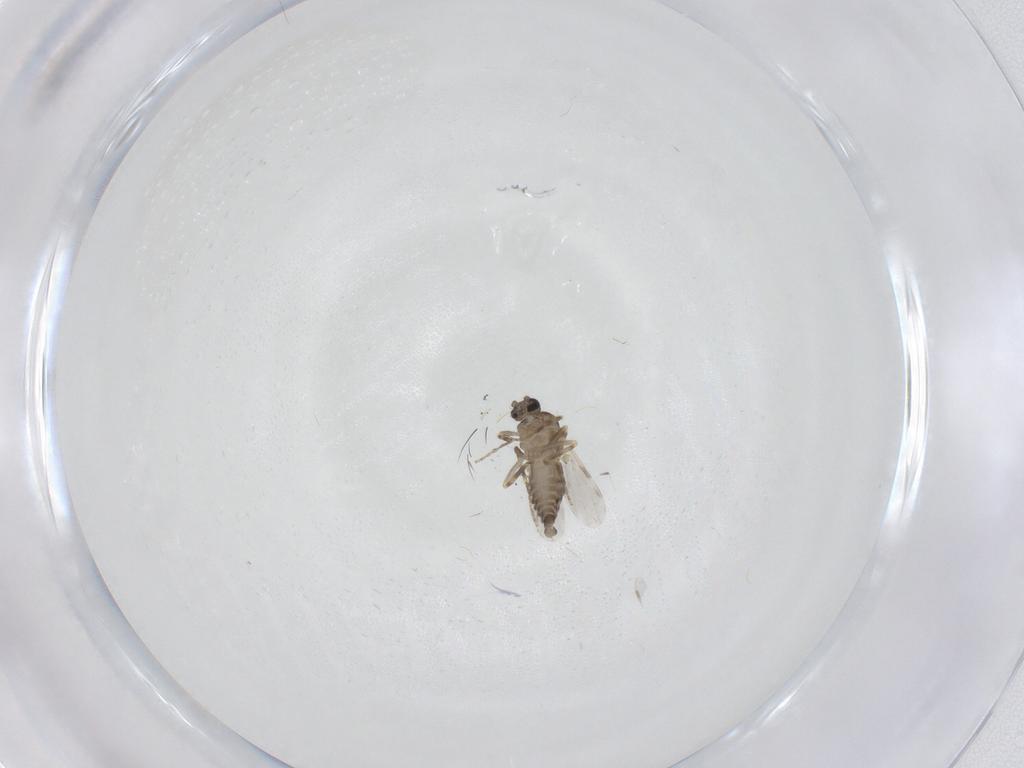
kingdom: Animalia
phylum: Arthropoda
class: Insecta
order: Diptera
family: Ceratopogonidae
